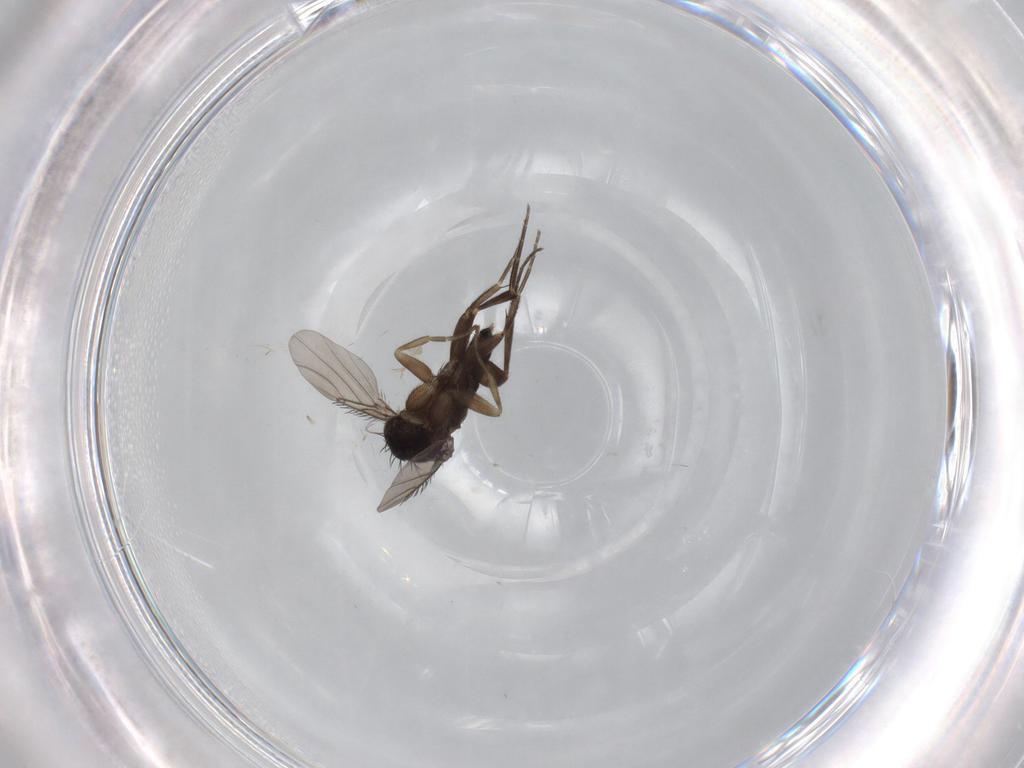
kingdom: Animalia
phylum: Arthropoda
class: Insecta
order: Diptera
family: Phoridae
